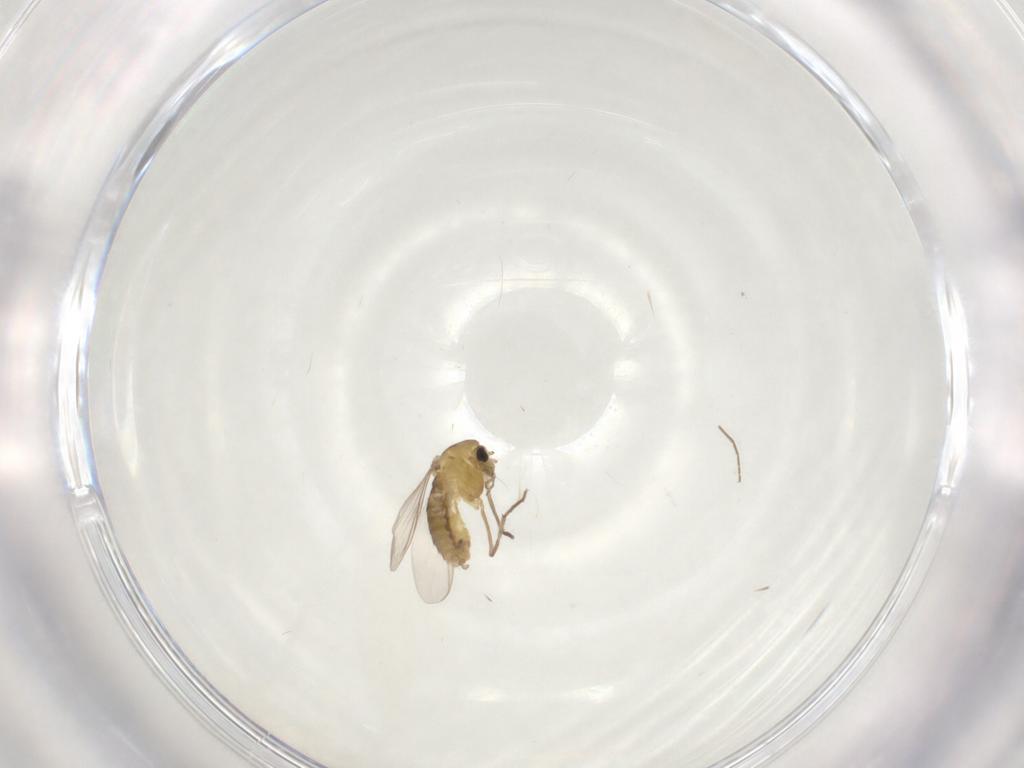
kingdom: Animalia
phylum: Arthropoda
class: Insecta
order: Diptera
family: Chironomidae
